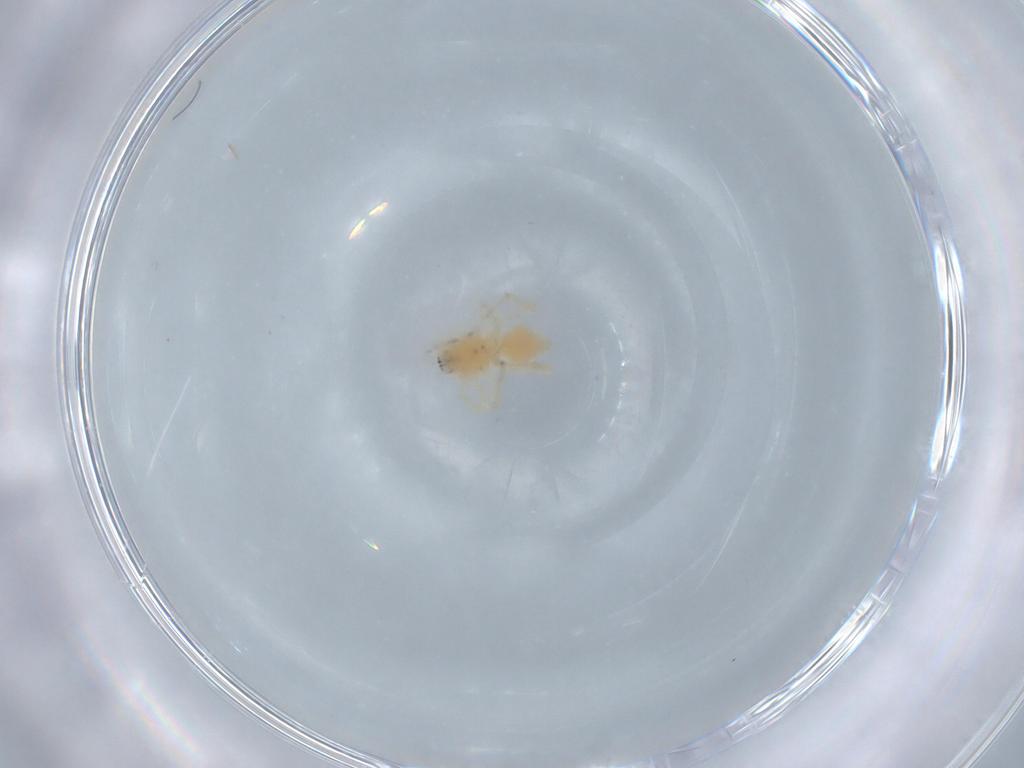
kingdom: Animalia
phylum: Arthropoda
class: Arachnida
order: Araneae
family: Anyphaenidae
